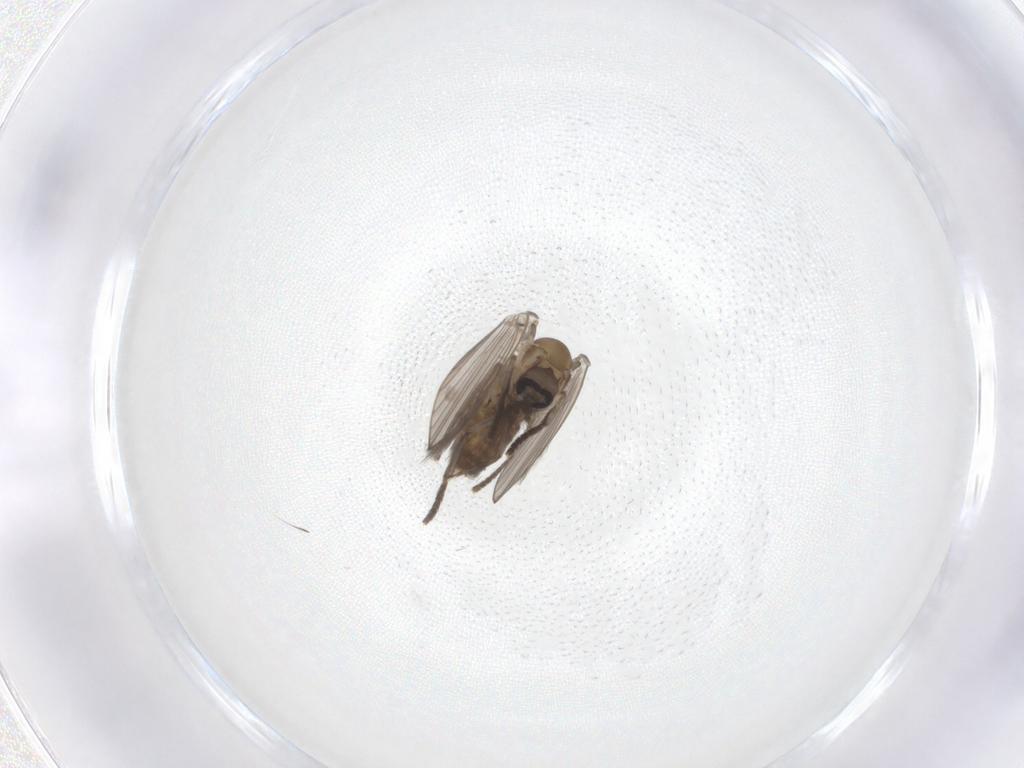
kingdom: Animalia
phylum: Arthropoda
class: Insecta
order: Diptera
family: Psychodidae
